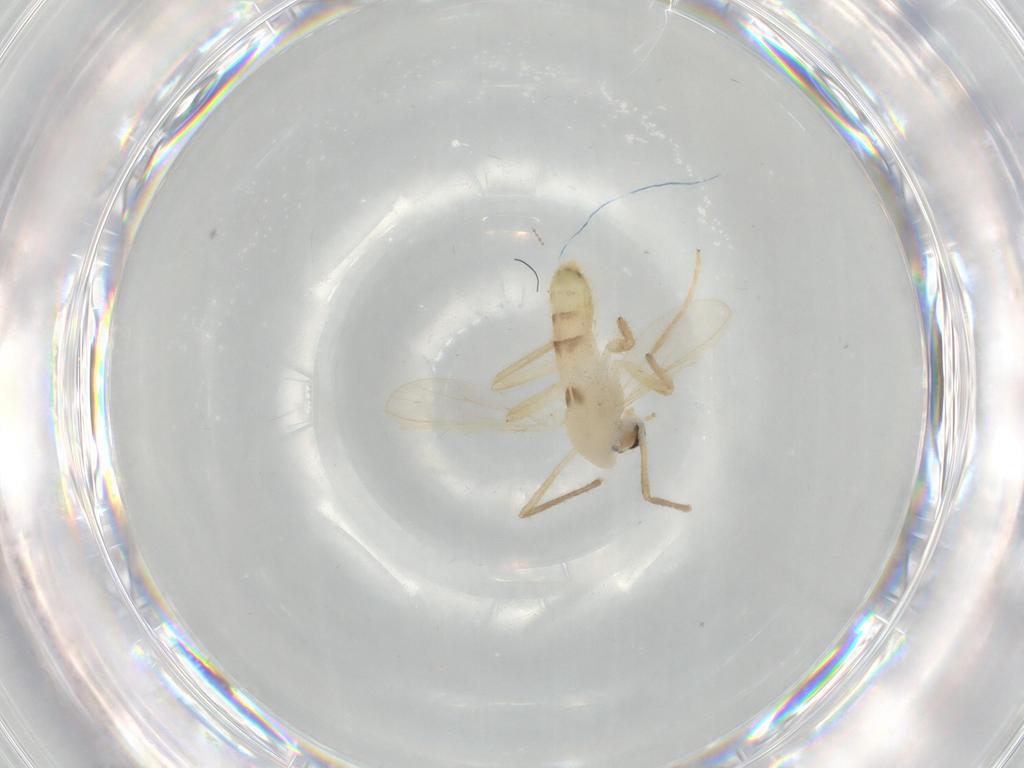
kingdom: Animalia
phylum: Arthropoda
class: Insecta
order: Diptera
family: Chironomidae
